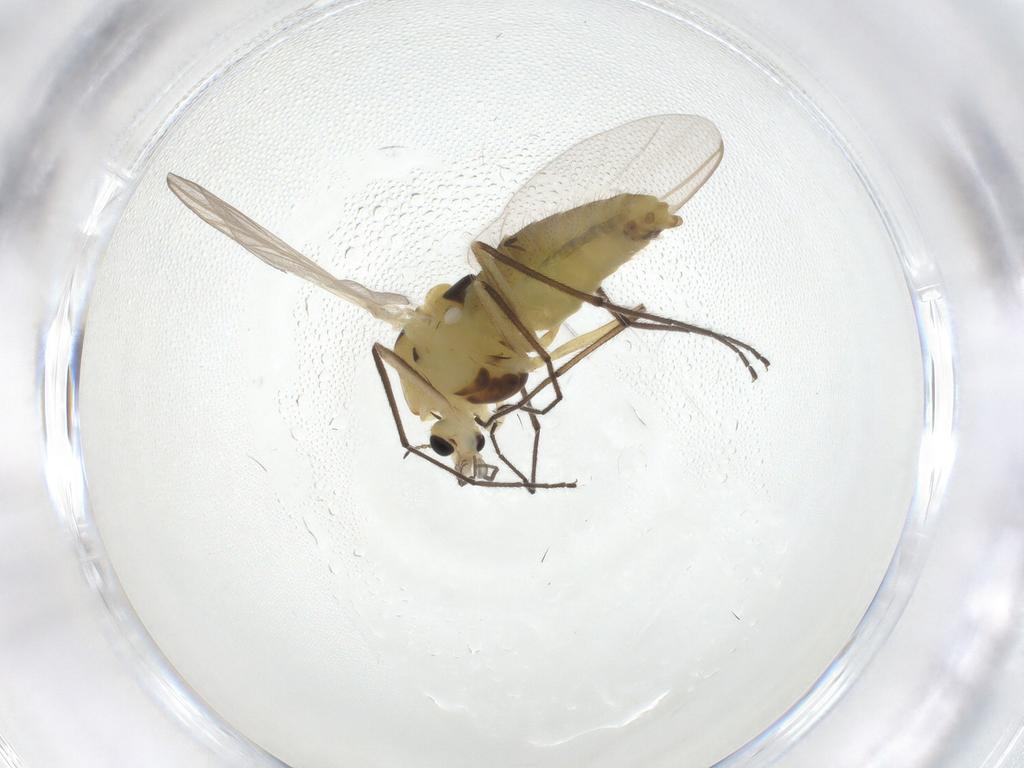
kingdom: Animalia
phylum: Arthropoda
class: Insecta
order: Diptera
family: Chironomidae
